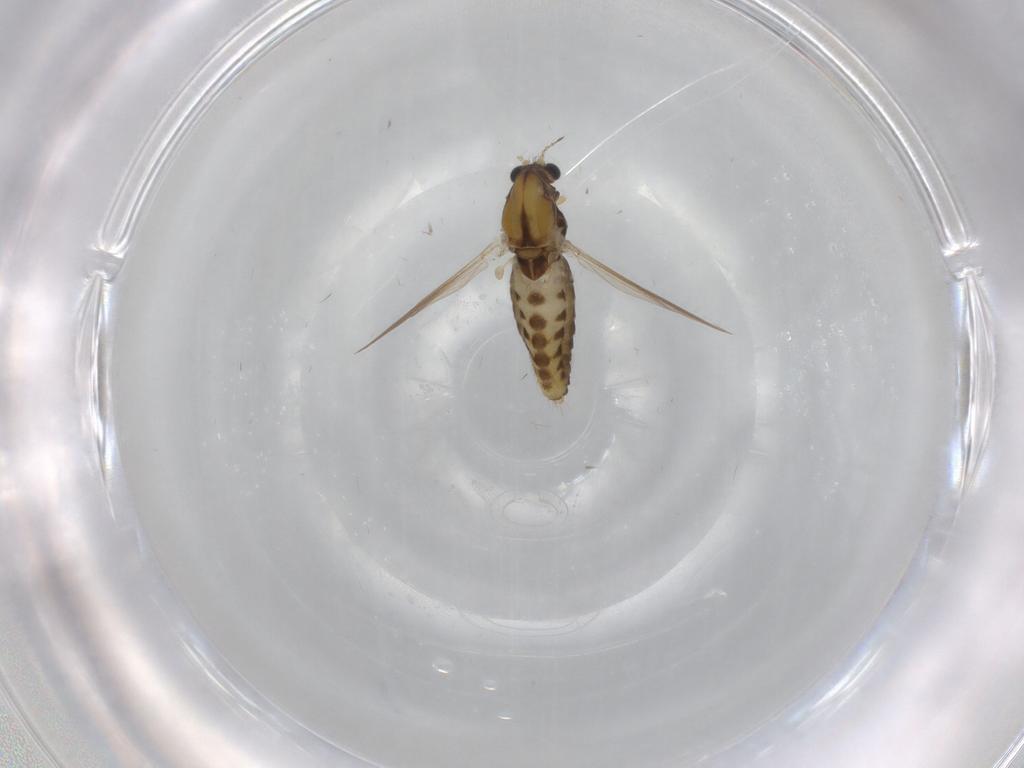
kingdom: Animalia
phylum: Arthropoda
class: Insecta
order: Diptera
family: Chironomidae
